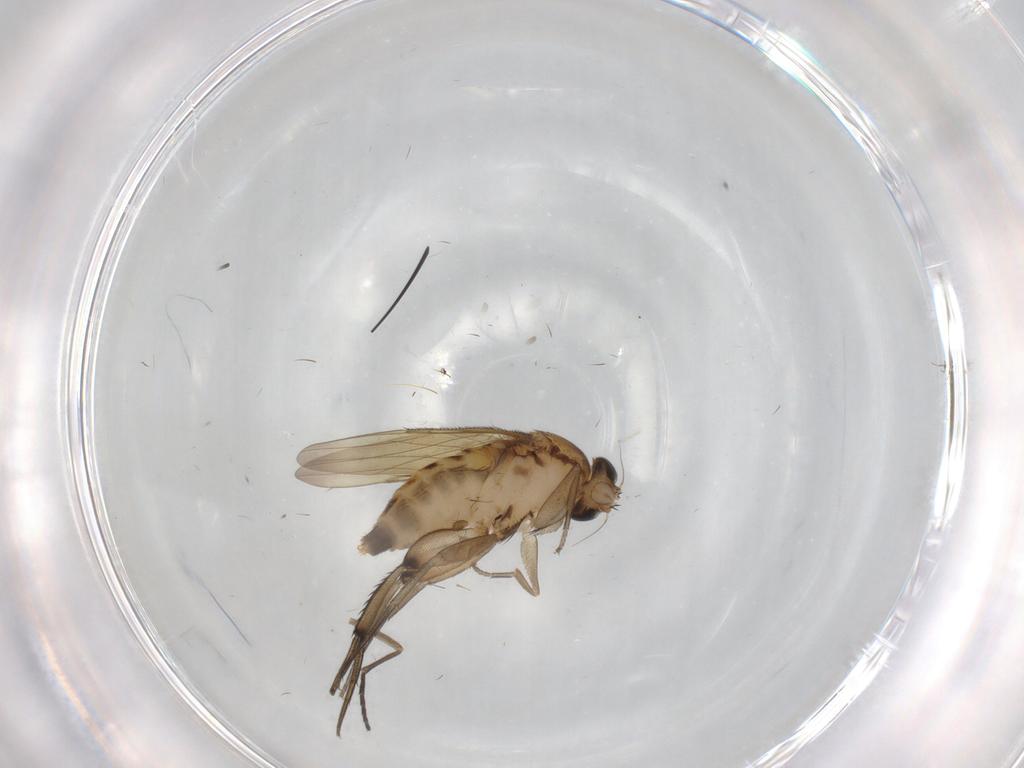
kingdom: Animalia
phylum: Arthropoda
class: Insecta
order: Diptera
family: Phoridae
